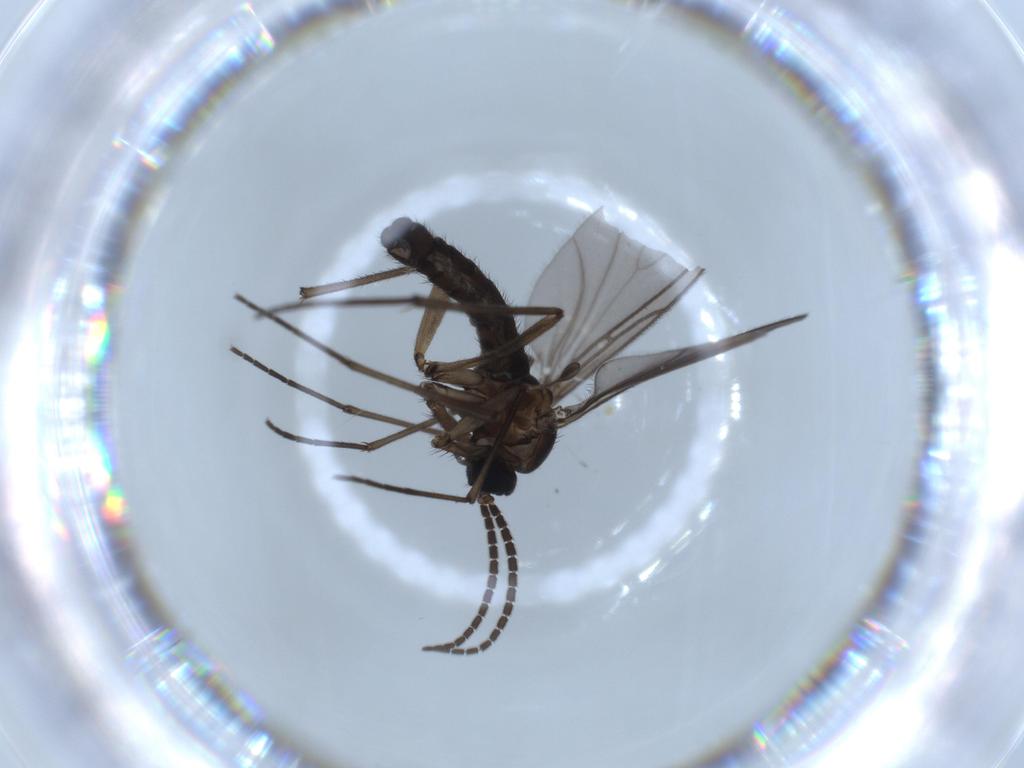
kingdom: Animalia
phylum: Arthropoda
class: Insecta
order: Diptera
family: Sciaridae
